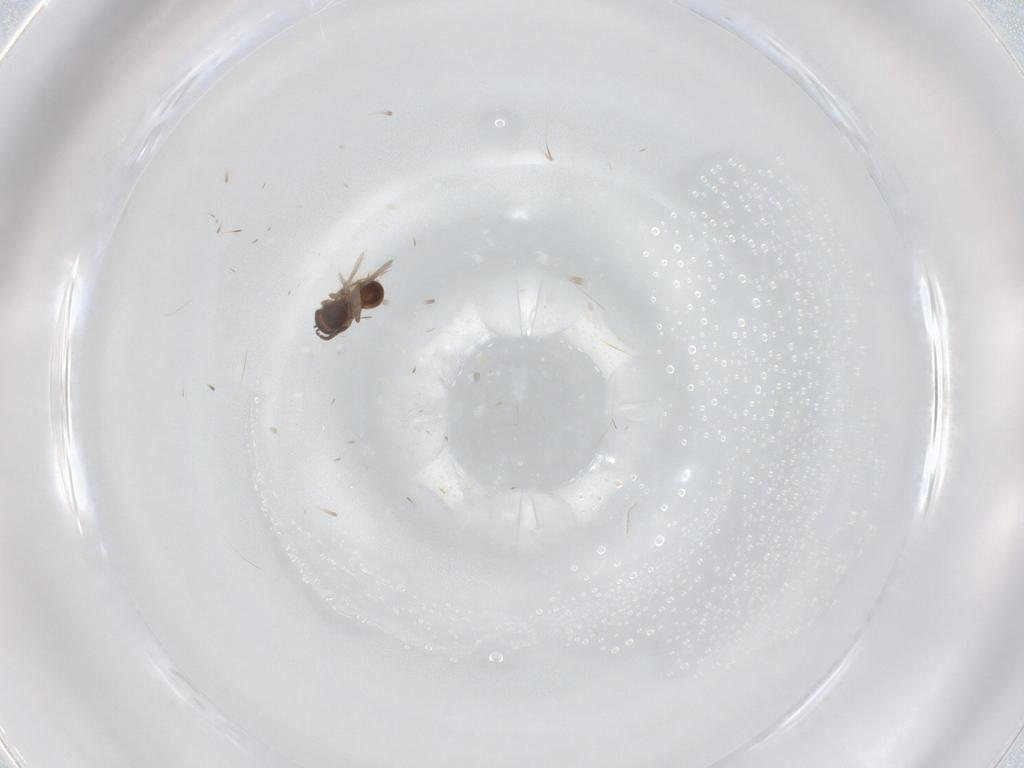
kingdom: Animalia
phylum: Arthropoda
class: Insecta
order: Hymenoptera
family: Scelionidae
